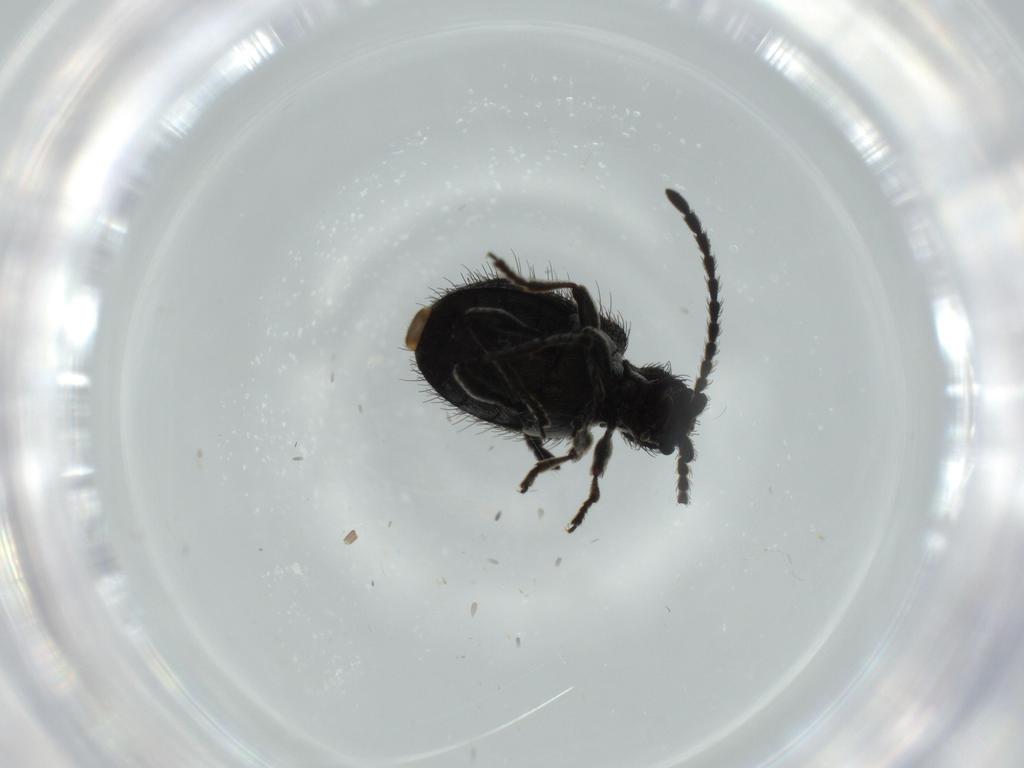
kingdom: Animalia
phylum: Arthropoda
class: Insecta
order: Coleoptera
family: Ptinidae
